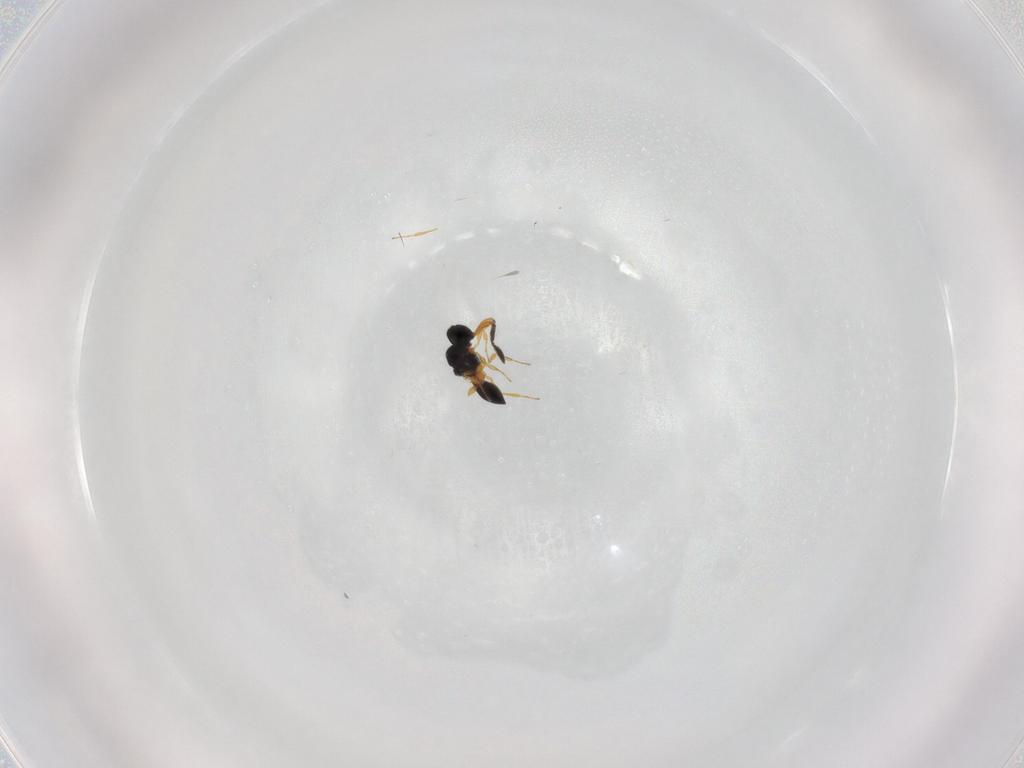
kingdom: Animalia
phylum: Arthropoda
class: Insecta
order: Hymenoptera
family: Platygastridae
